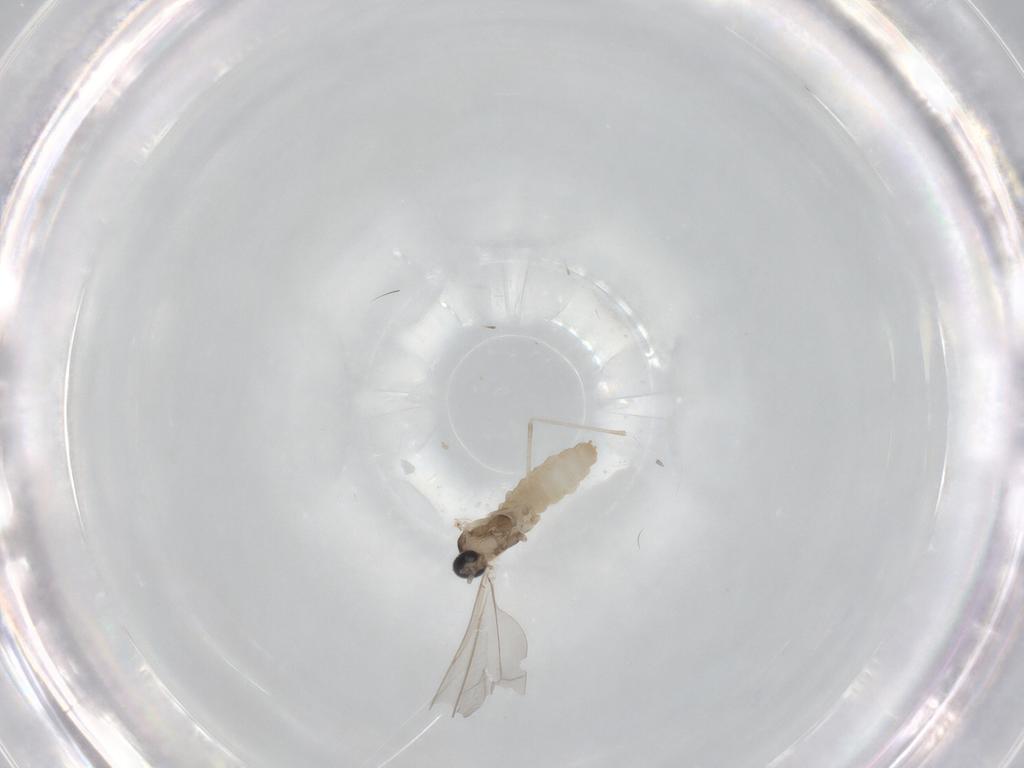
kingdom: Animalia
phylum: Arthropoda
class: Insecta
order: Diptera
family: Cecidomyiidae
